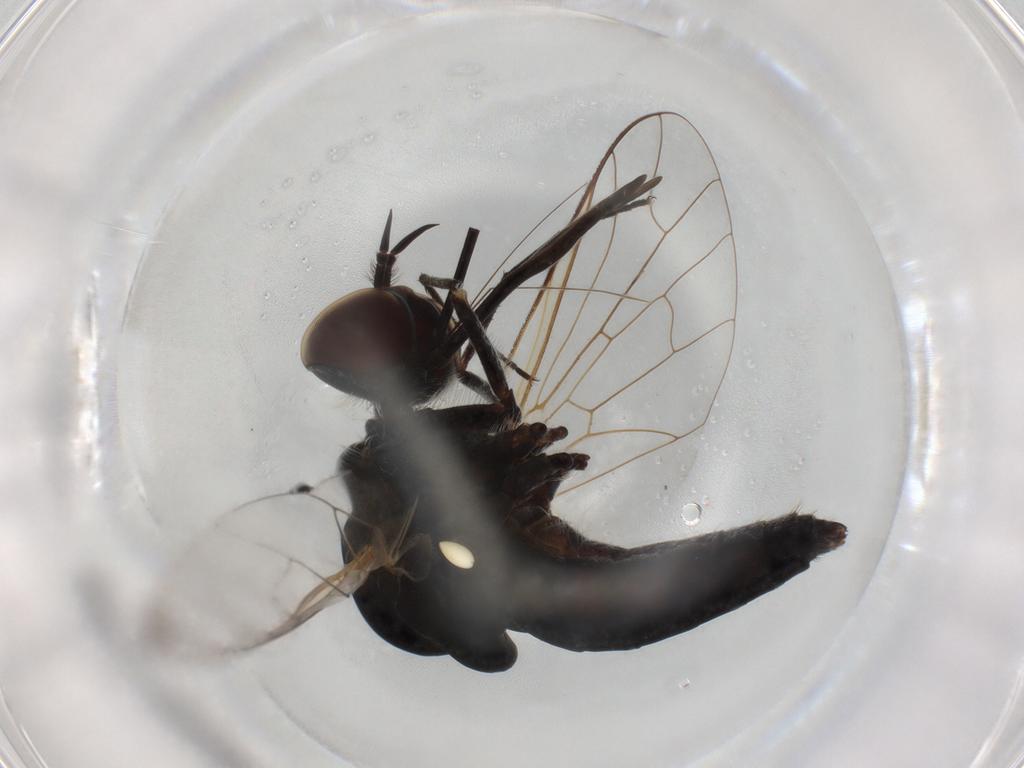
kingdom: Animalia
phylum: Arthropoda
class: Insecta
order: Diptera
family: Bombyliidae
